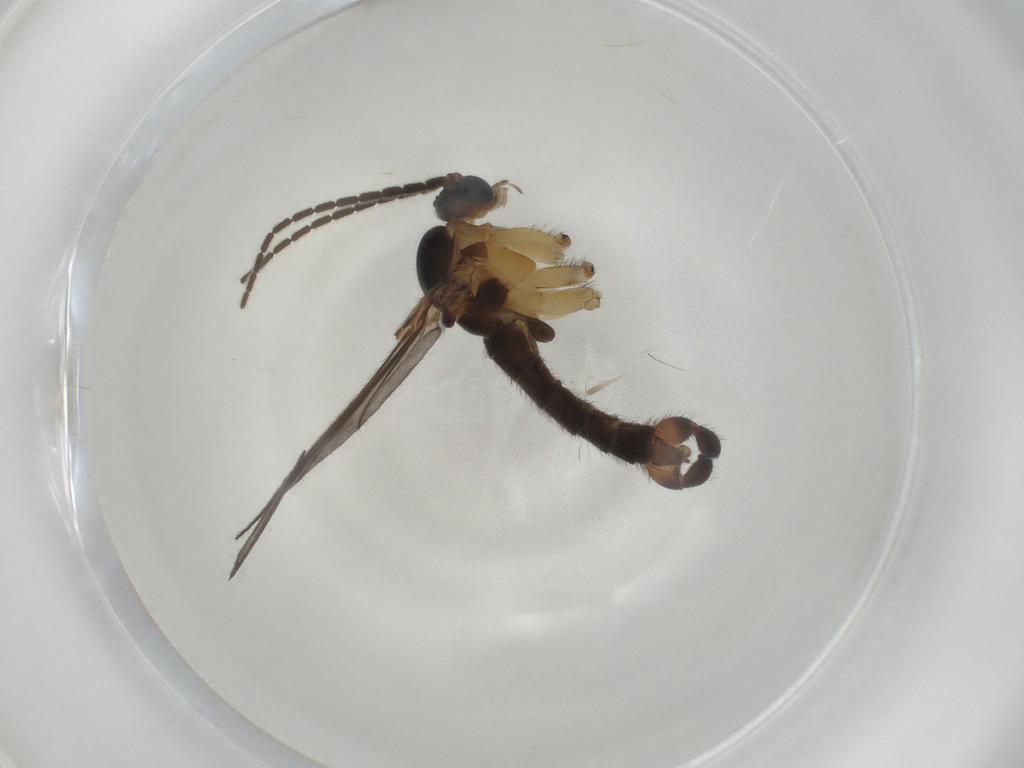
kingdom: Animalia
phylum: Arthropoda
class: Insecta
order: Diptera
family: Sciaridae
